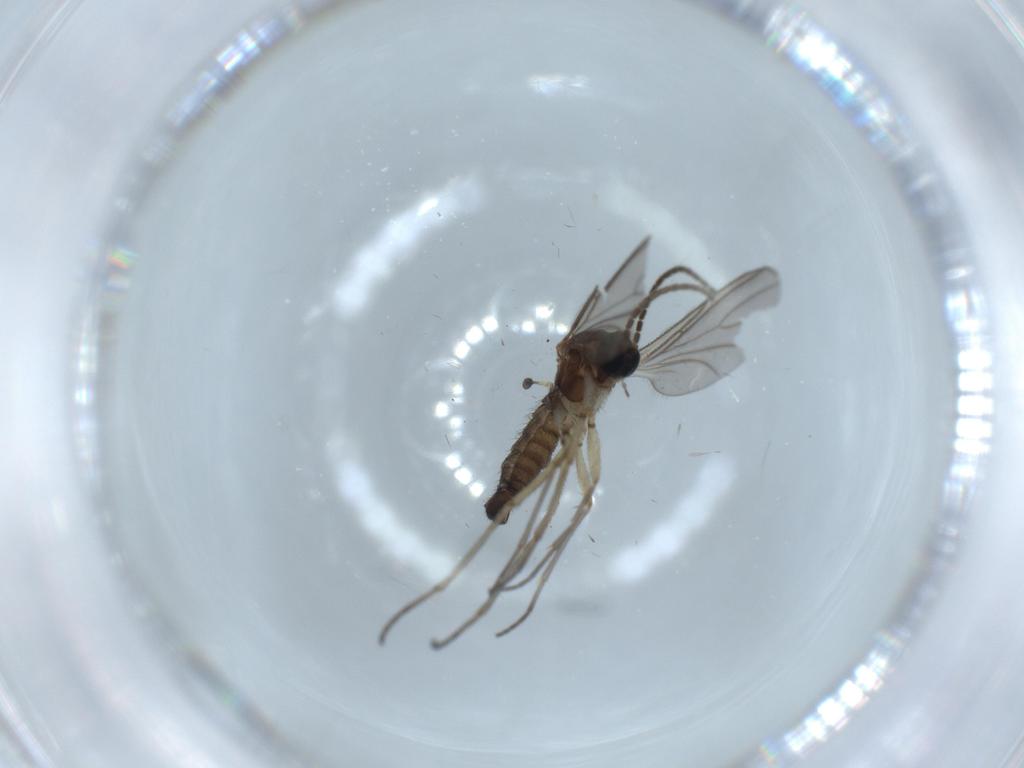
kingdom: Animalia
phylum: Arthropoda
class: Insecta
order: Diptera
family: Sciaridae
